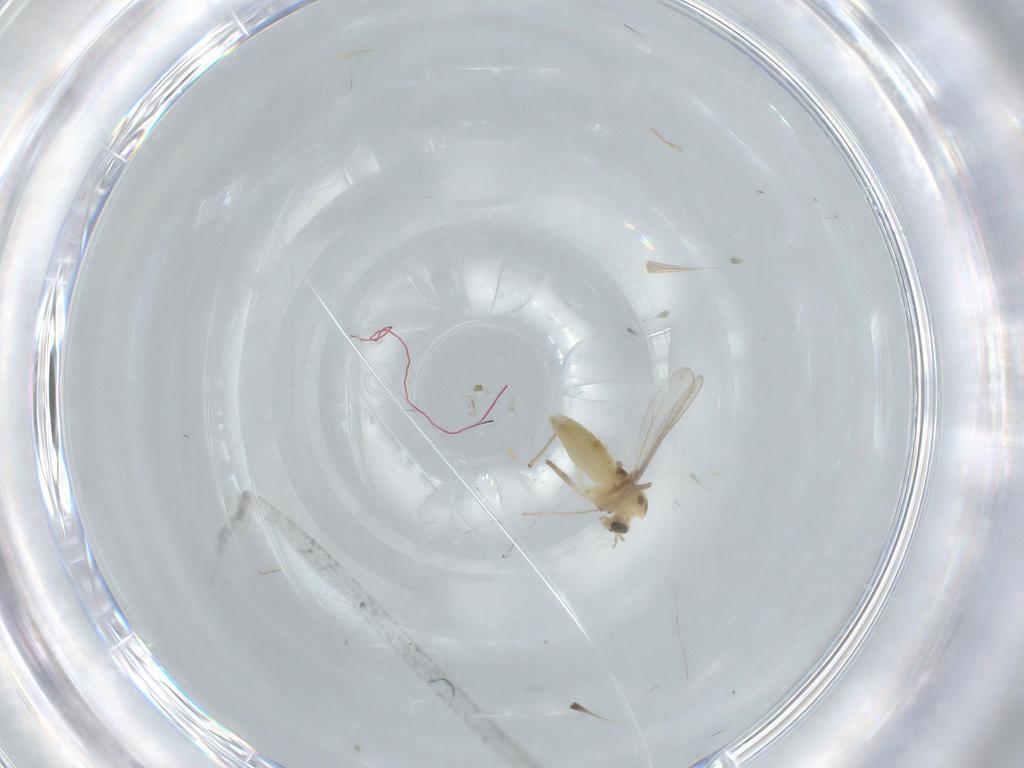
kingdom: Animalia
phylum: Arthropoda
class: Insecta
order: Diptera
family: Chironomidae
